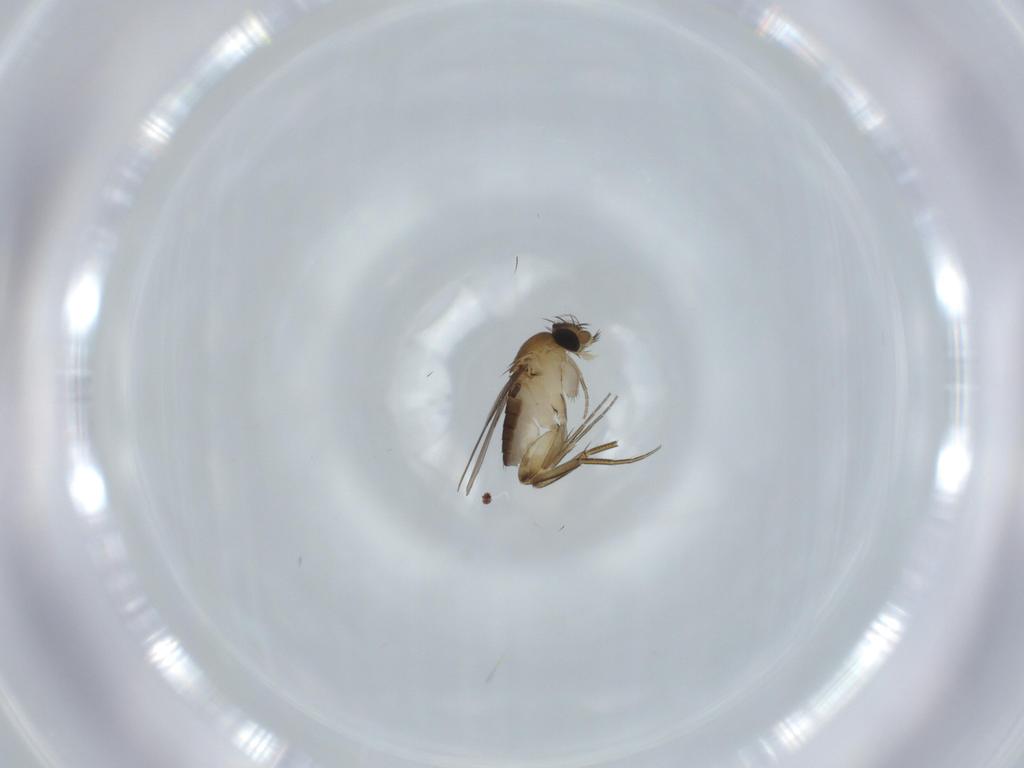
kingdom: Animalia
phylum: Arthropoda
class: Insecta
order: Diptera
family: Phoridae
